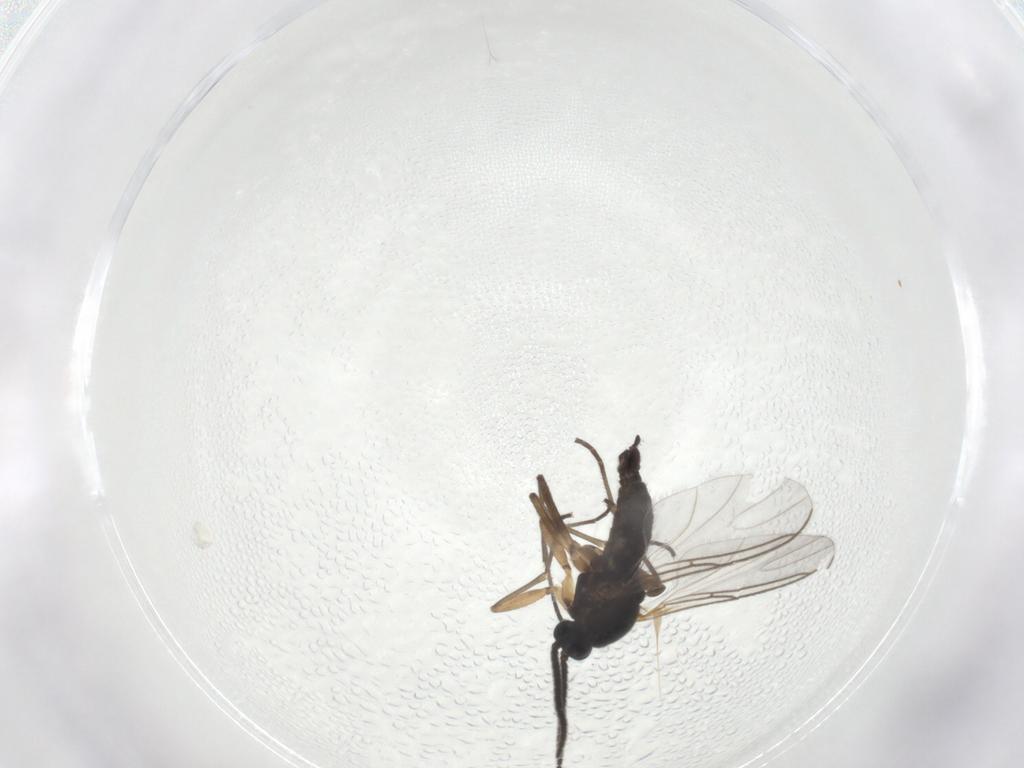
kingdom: Animalia
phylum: Arthropoda
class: Insecta
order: Diptera
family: Sciaridae
